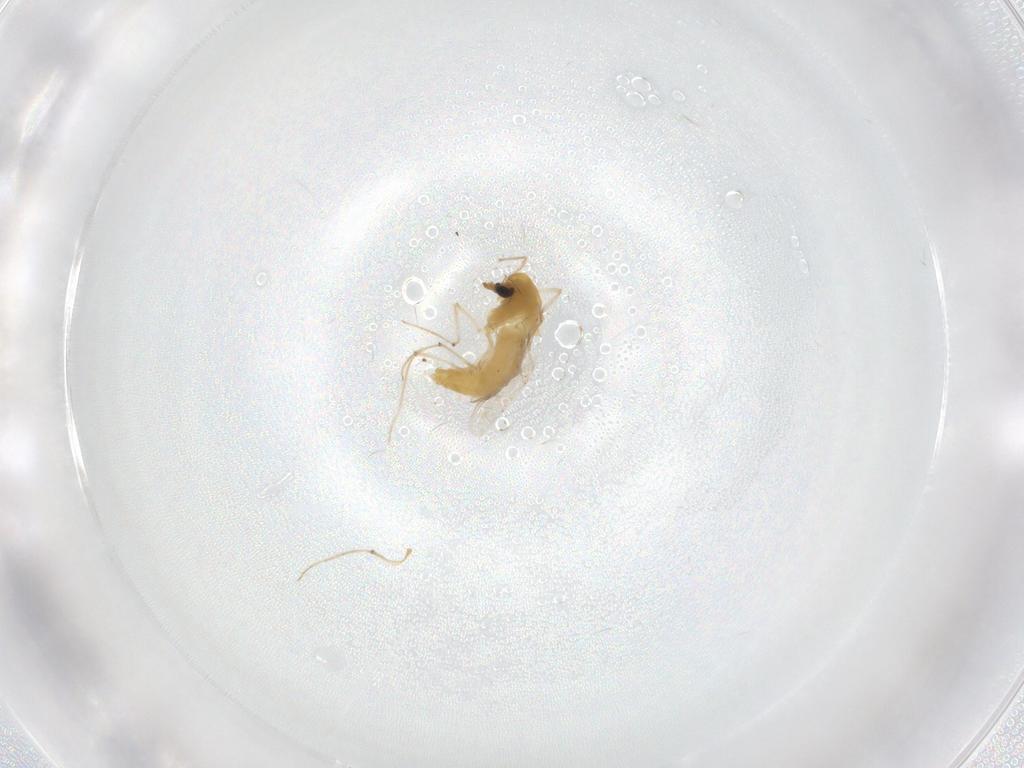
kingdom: Animalia
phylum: Arthropoda
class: Insecta
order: Diptera
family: Chironomidae
